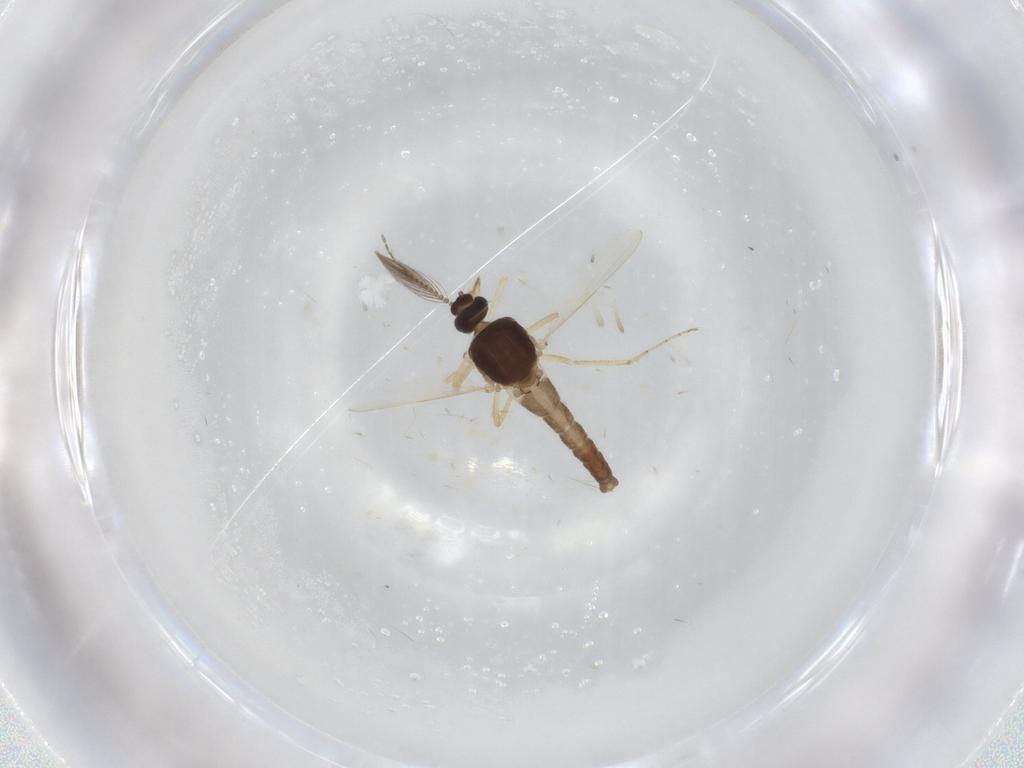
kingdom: Animalia
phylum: Arthropoda
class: Insecta
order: Diptera
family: Ceratopogonidae
